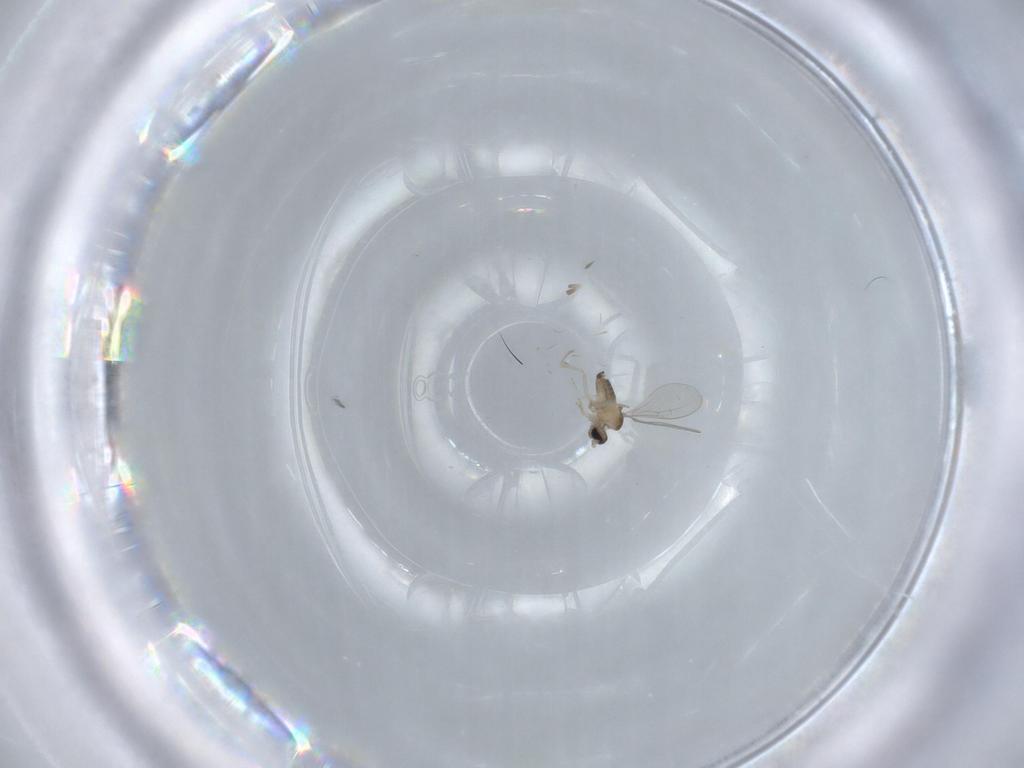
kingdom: Animalia
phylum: Arthropoda
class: Insecta
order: Diptera
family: Cecidomyiidae
